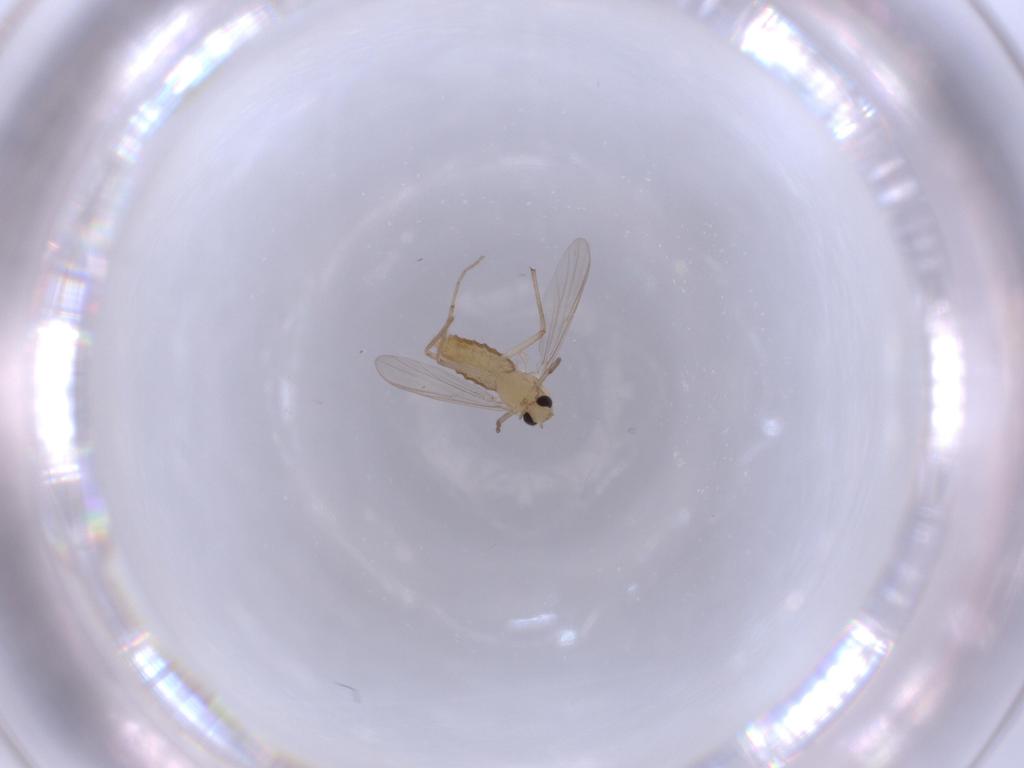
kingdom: Animalia
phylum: Arthropoda
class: Insecta
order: Diptera
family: Chironomidae
